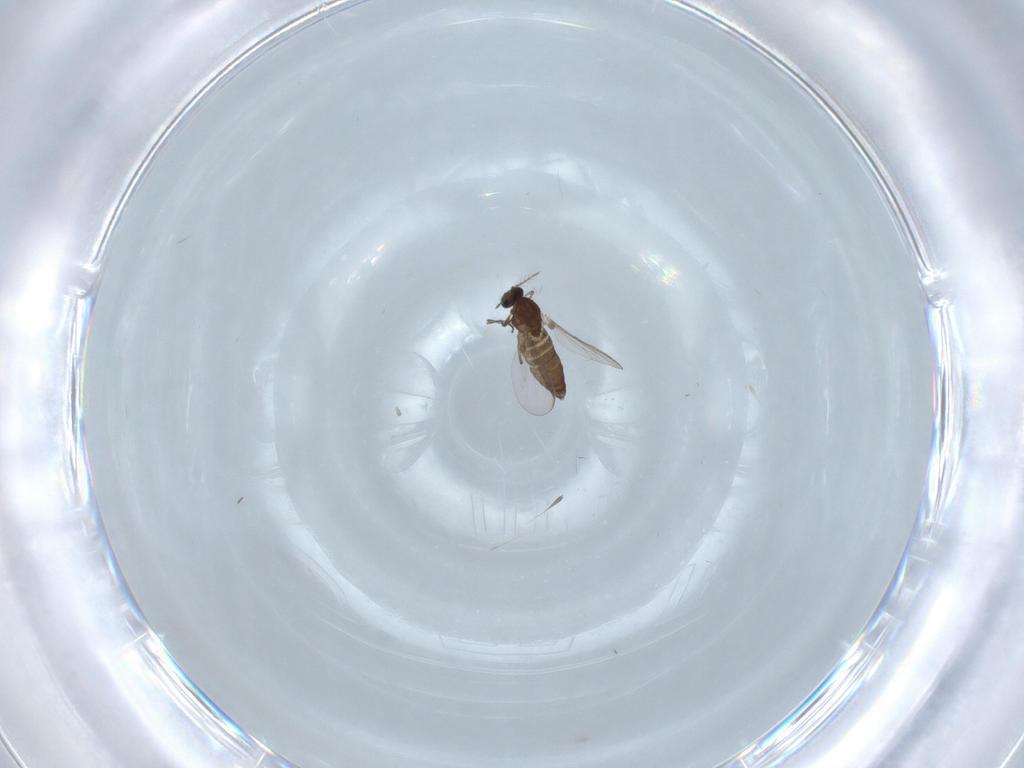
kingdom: Animalia
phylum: Arthropoda
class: Insecta
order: Diptera
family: Chironomidae
